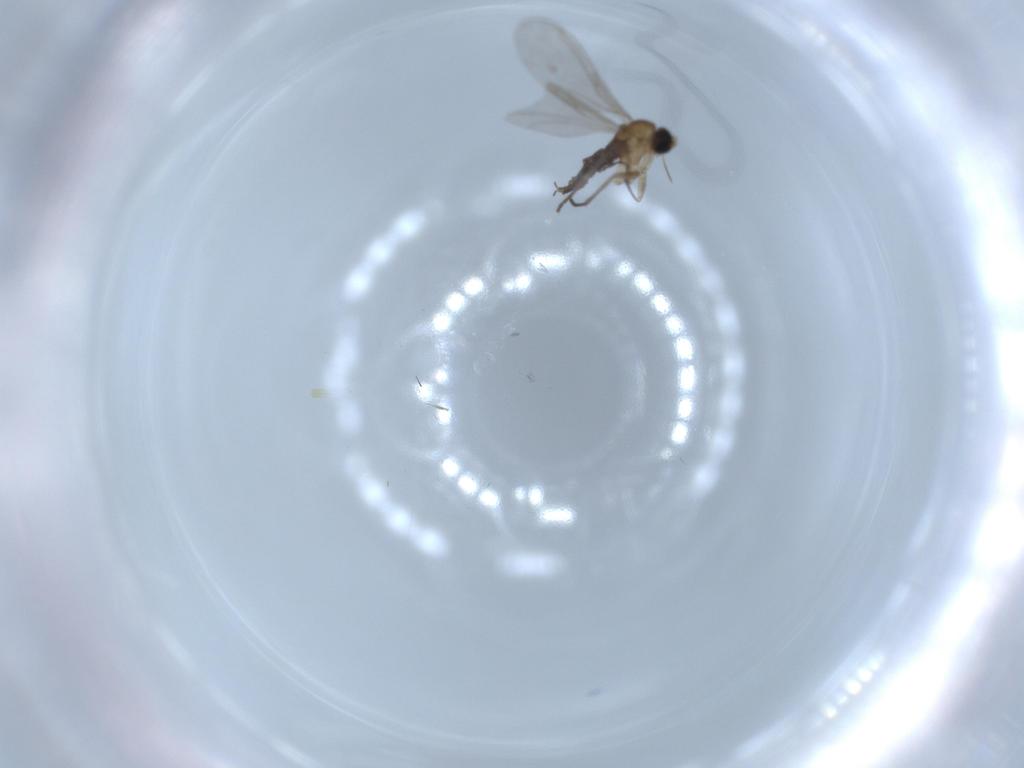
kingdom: Animalia
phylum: Arthropoda
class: Insecta
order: Diptera
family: Sciaridae
